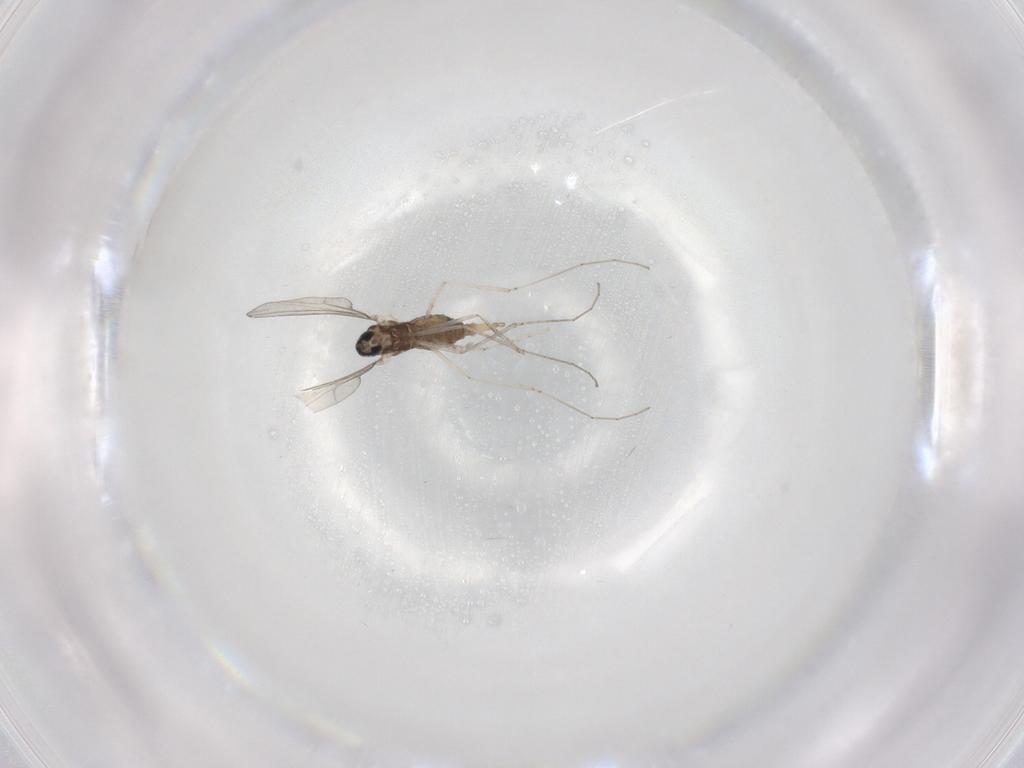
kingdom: Animalia
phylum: Arthropoda
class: Insecta
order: Diptera
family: Cecidomyiidae
